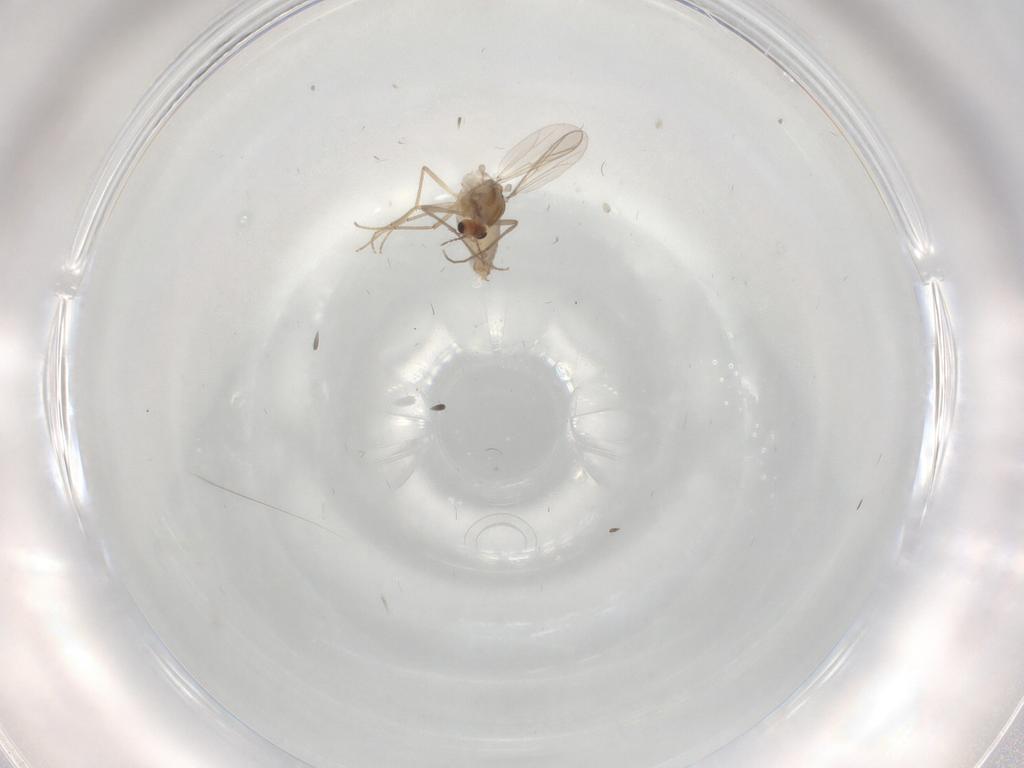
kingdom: Animalia
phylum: Arthropoda
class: Insecta
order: Diptera
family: Chironomidae
